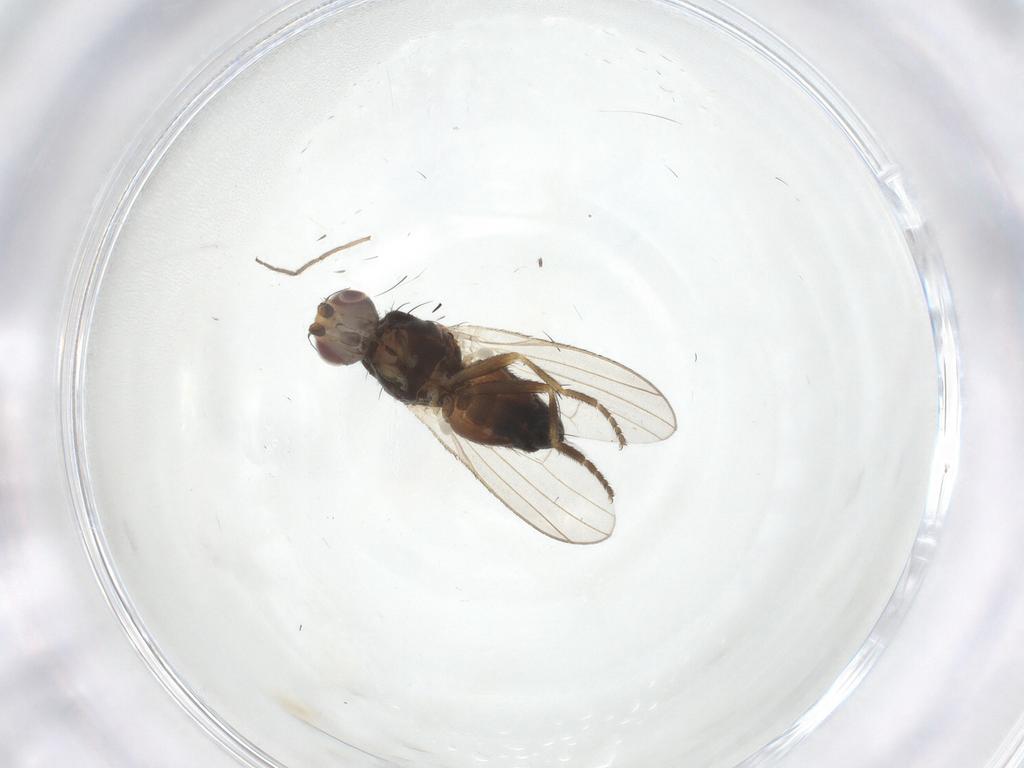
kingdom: Animalia
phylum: Arthropoda
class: Insecta
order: Diptera
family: Heleomyzidae
